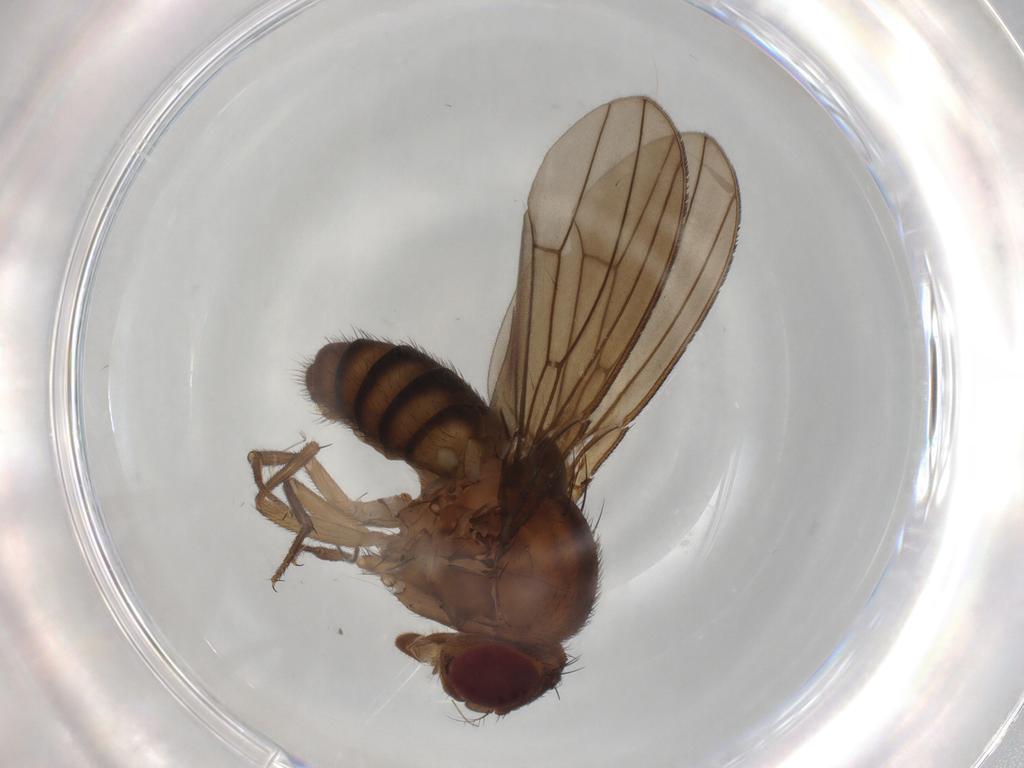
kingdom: Animalia
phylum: Arthropoda
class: Insecta
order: Diptera
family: Drosophilidae
